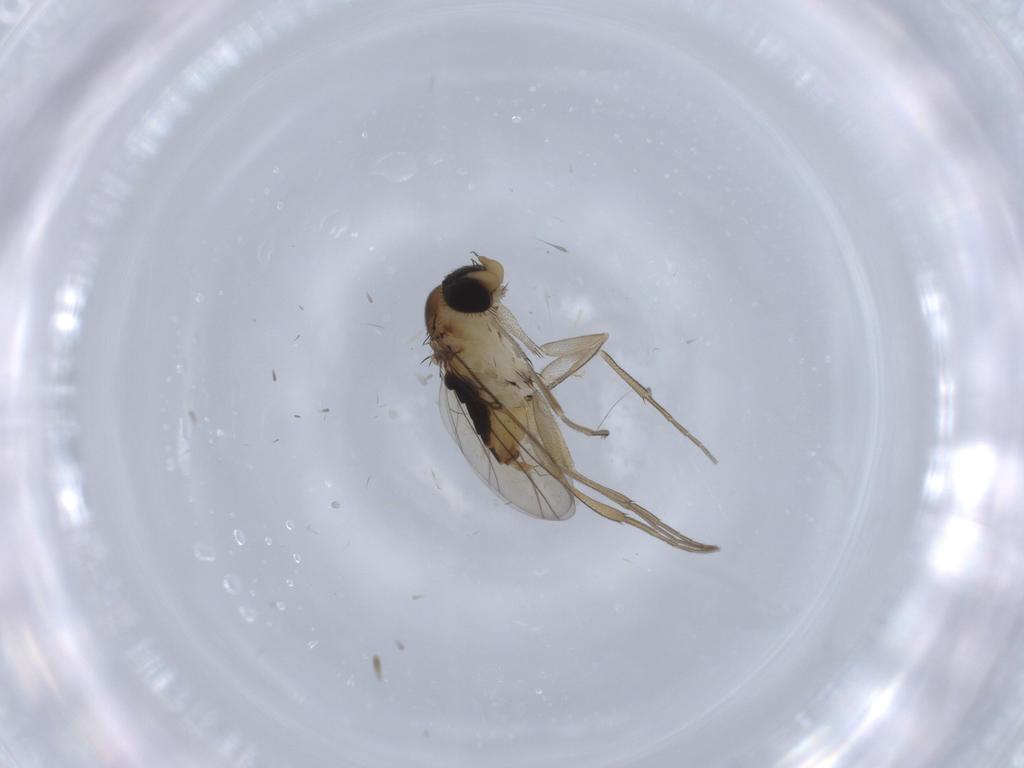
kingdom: Animalia
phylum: Arthropoda
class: Insecta
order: Diptera
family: Phoridae
